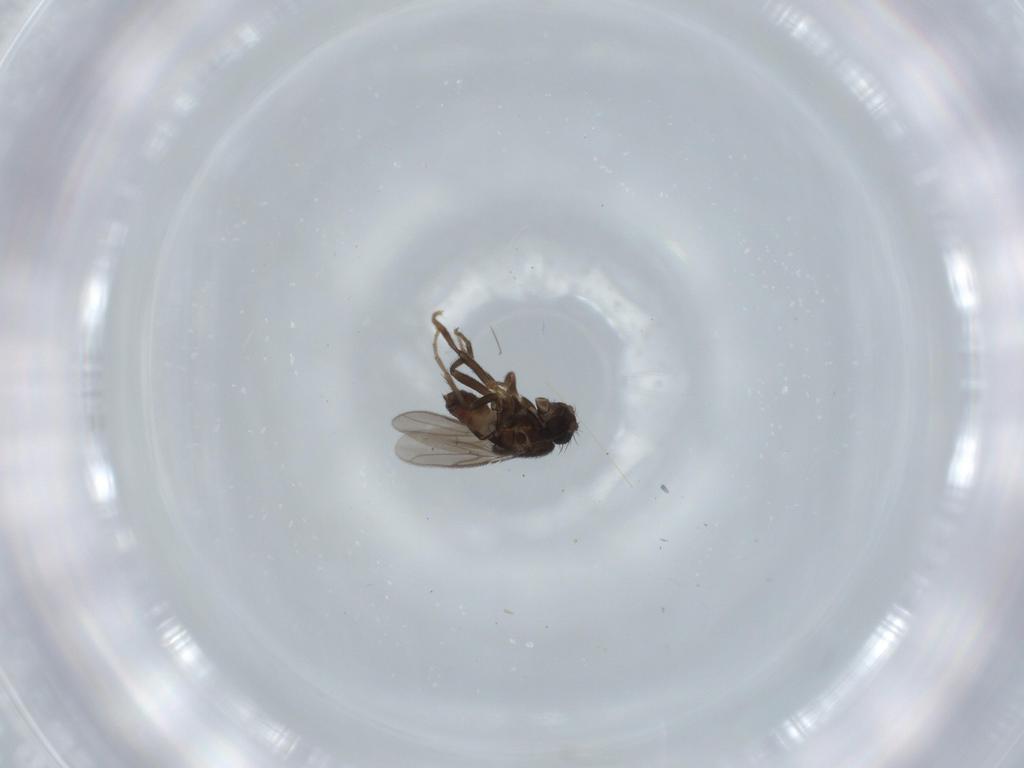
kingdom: Animalia
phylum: Arthropoda
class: Insecta
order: Diptera
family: Sphaeroceridae
